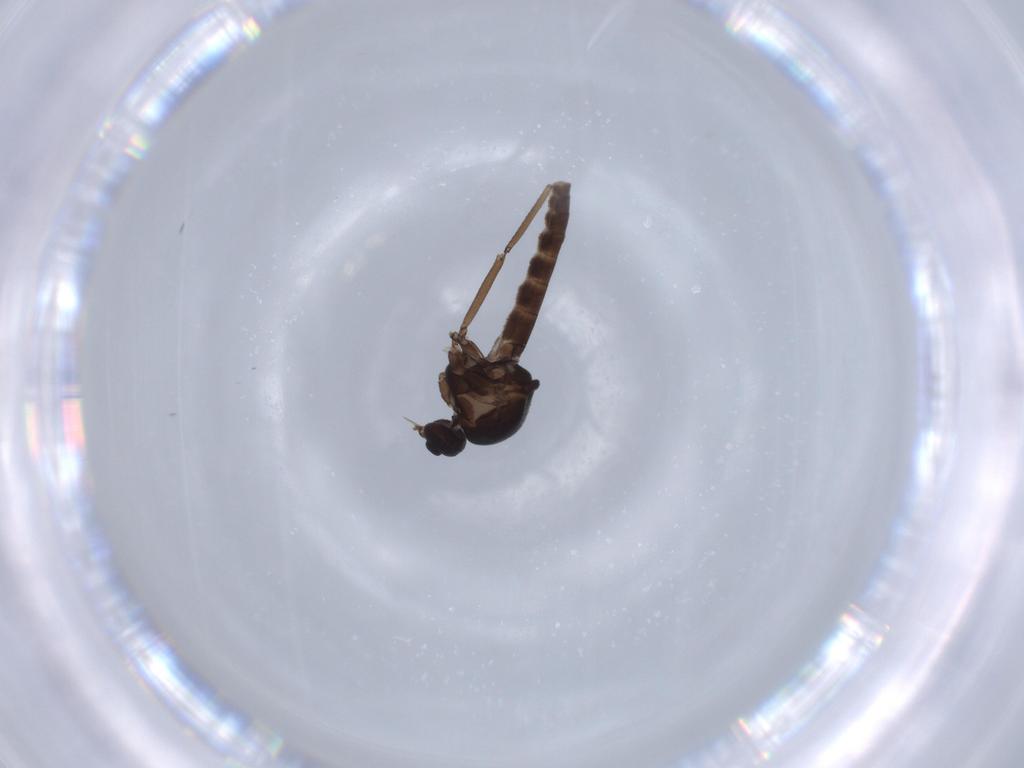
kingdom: Animalia
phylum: Arthropoda
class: Insecta
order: Diptera
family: Ceratopogonidae
